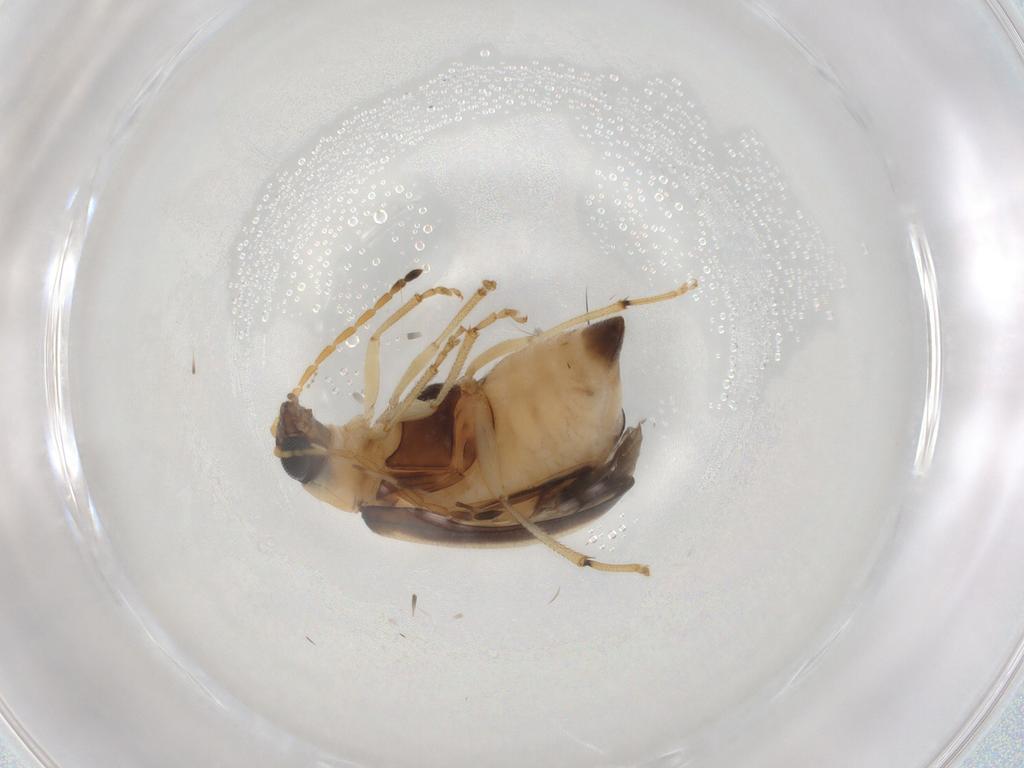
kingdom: Animalia
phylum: Arthropoda
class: Insecta
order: Coleoptera
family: Chrysomelidae
